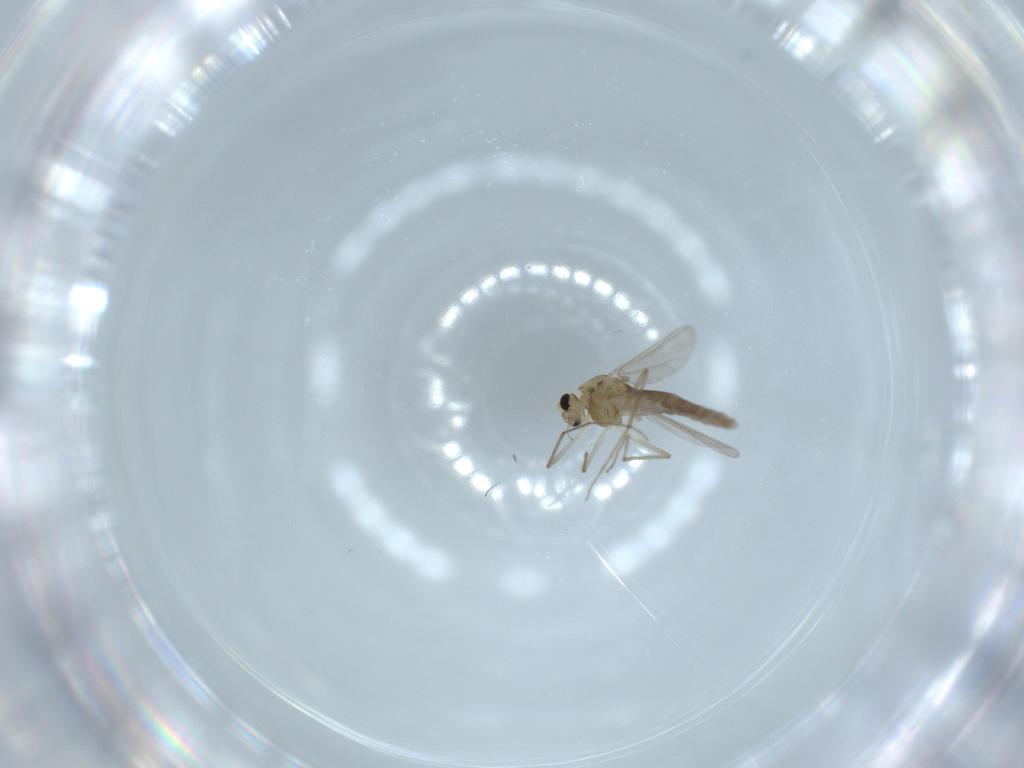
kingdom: Animalia
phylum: Arthropoda
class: Insecta
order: Diptera
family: Chironomidae
